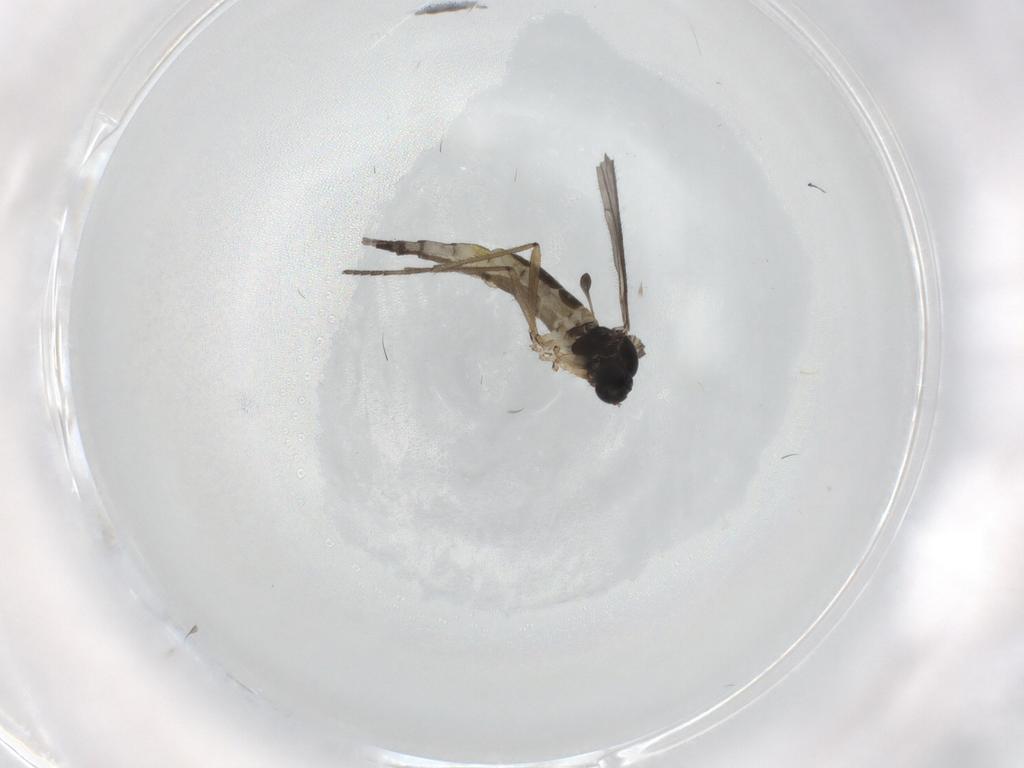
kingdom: Animalia
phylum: Arthropoda
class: Insecta
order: Diptera
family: Sciaridae
